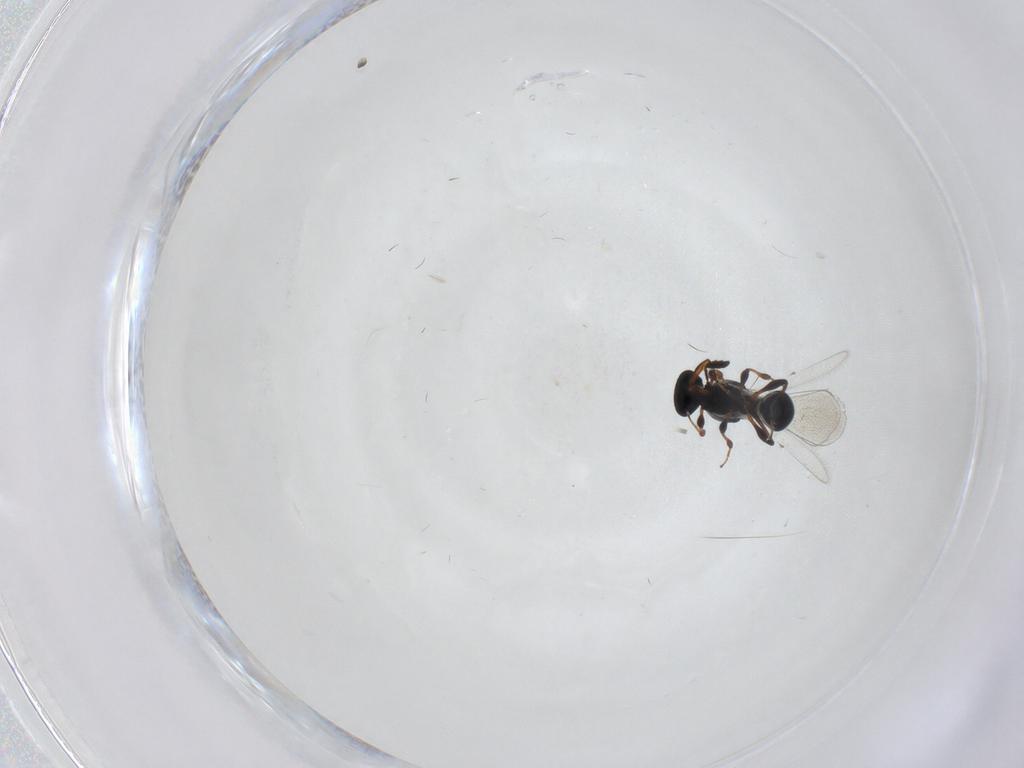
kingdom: Animalia
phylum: Arthropoda
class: Insecta
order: Hymenoptera
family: Platygastridae
